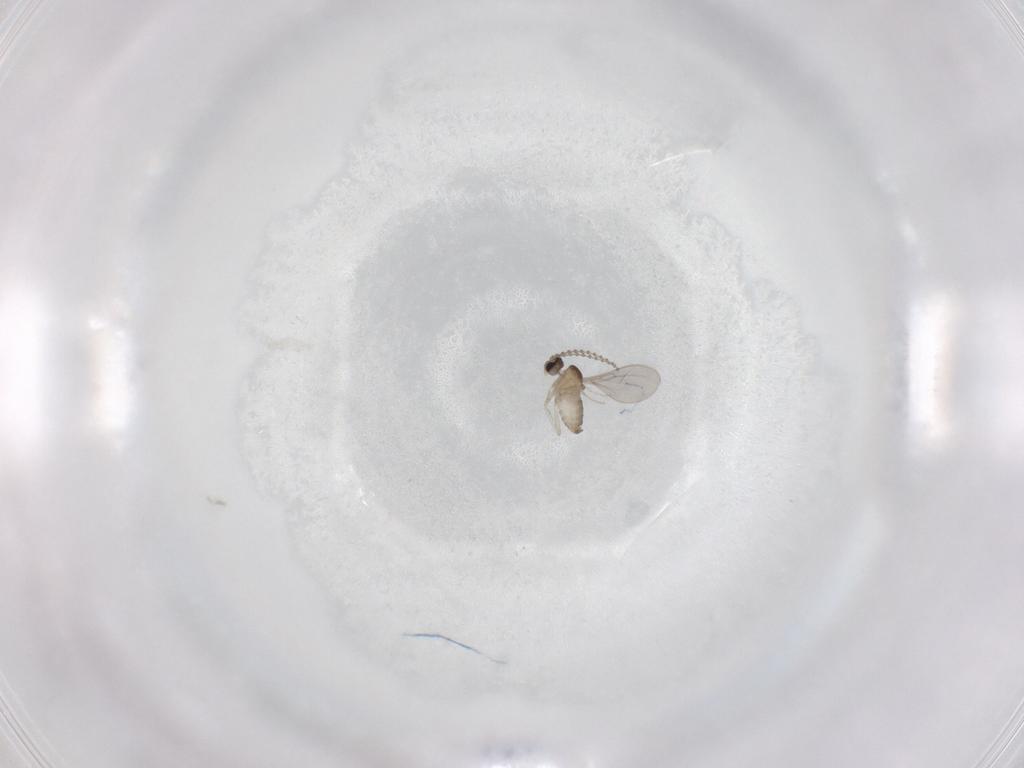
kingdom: Animalia
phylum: Arthropoda
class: Insecta
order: Diptera
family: Cecidomyiidae
